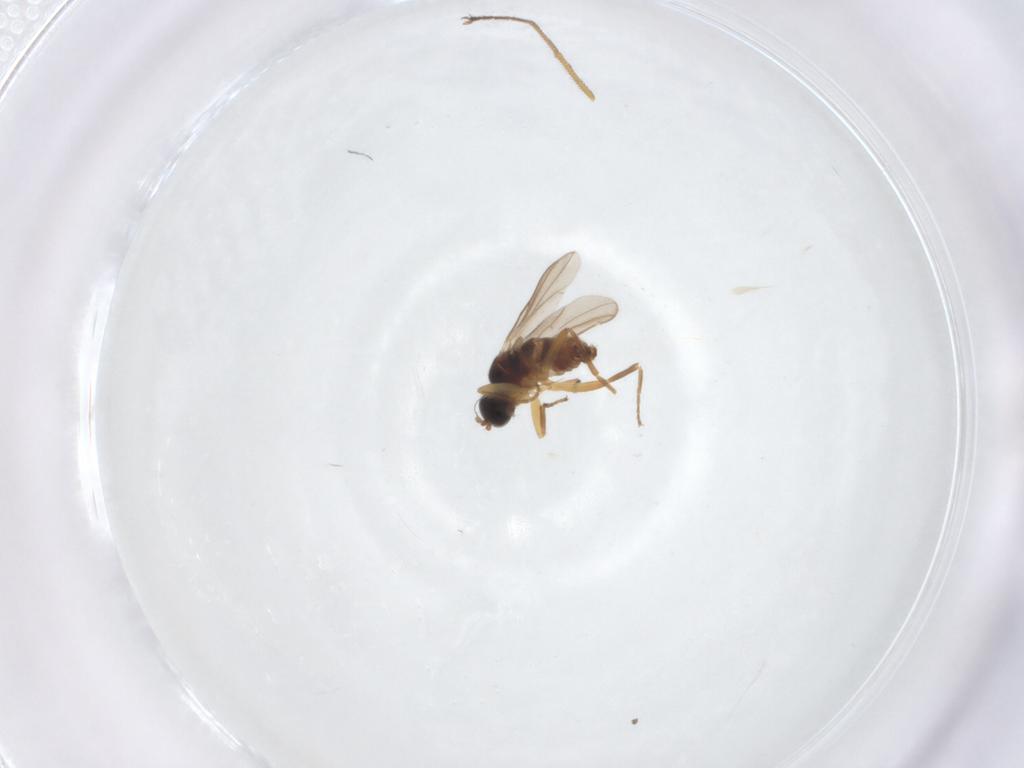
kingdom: Animalia
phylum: Arthropoda
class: Insecta
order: Diptera
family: Hybotidae
